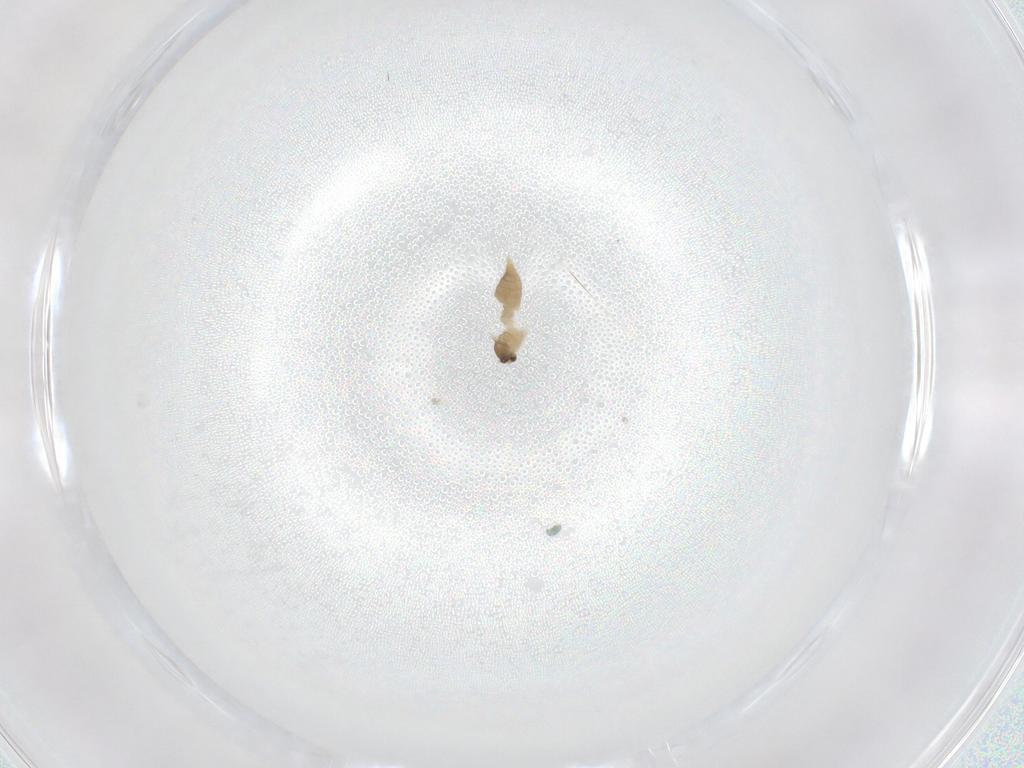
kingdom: Animalia
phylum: Arthropoda
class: Insecta
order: Diptera
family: Cecidomyiidae
